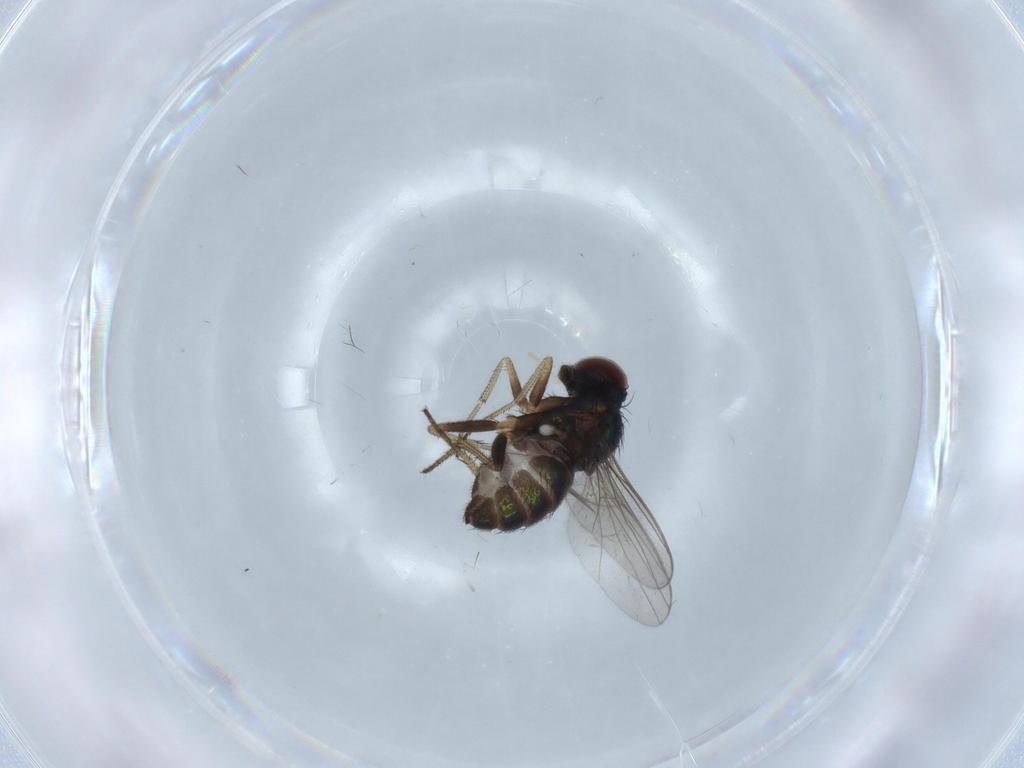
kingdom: Animalia
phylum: Arthropoda
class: Insecta
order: Diptera
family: Ceratopogonidae
